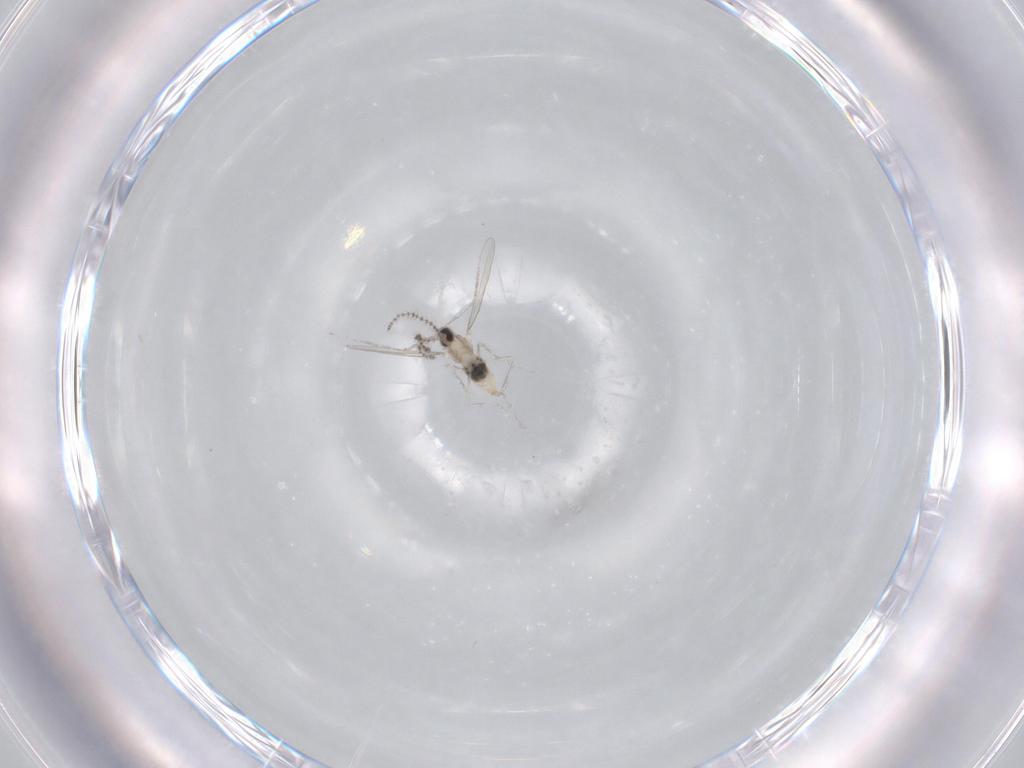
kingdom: Animalia
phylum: Arthropoda
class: Insecta
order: Diptera
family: Cecidomyiidae
